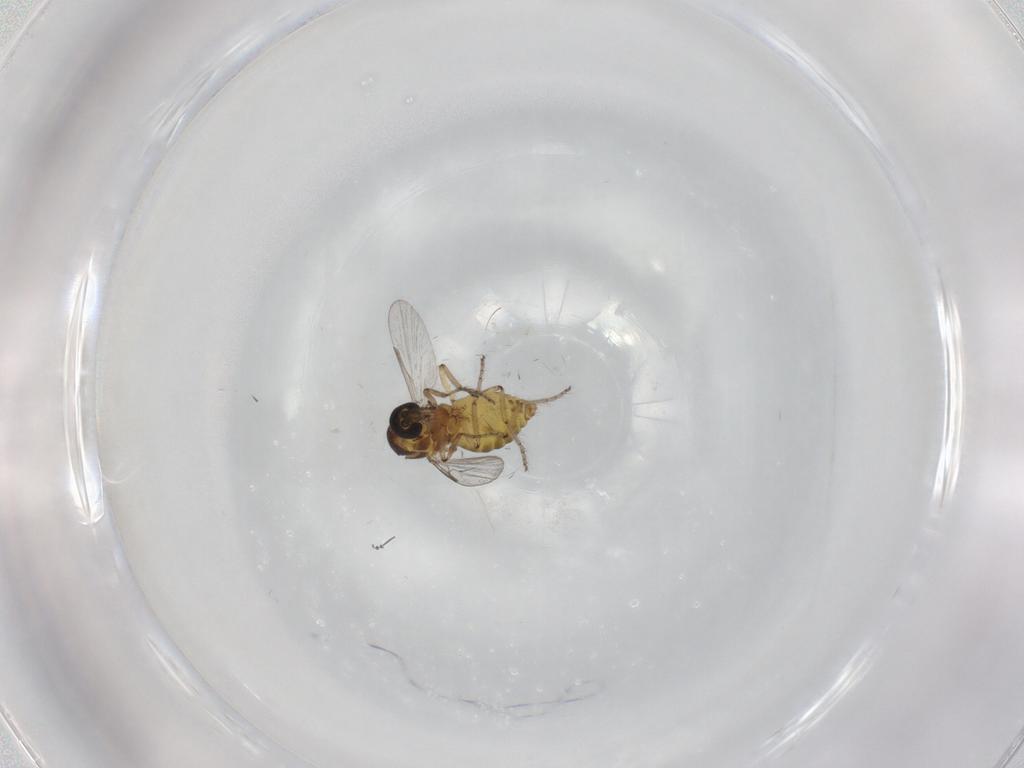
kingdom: Animalia
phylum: Arthropoda
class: Insecta
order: Diptera
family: Ceratopogonidae
